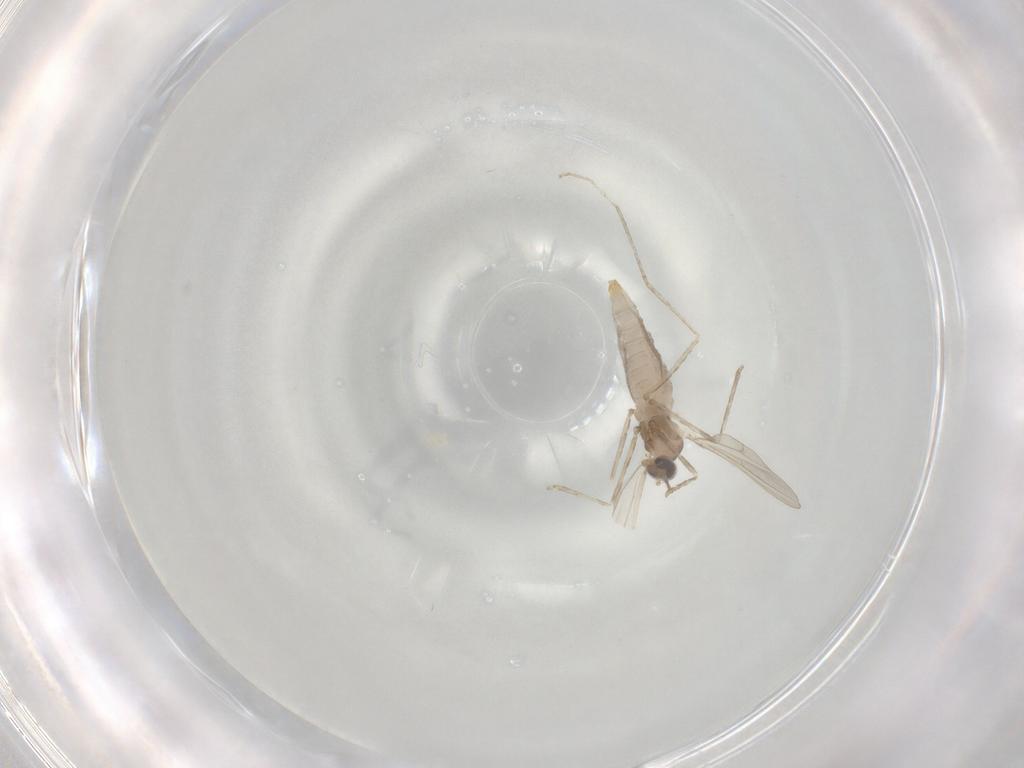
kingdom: Animalia
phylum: Arthropoda
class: Insecta
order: Diptera
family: Cecidomyiidae
